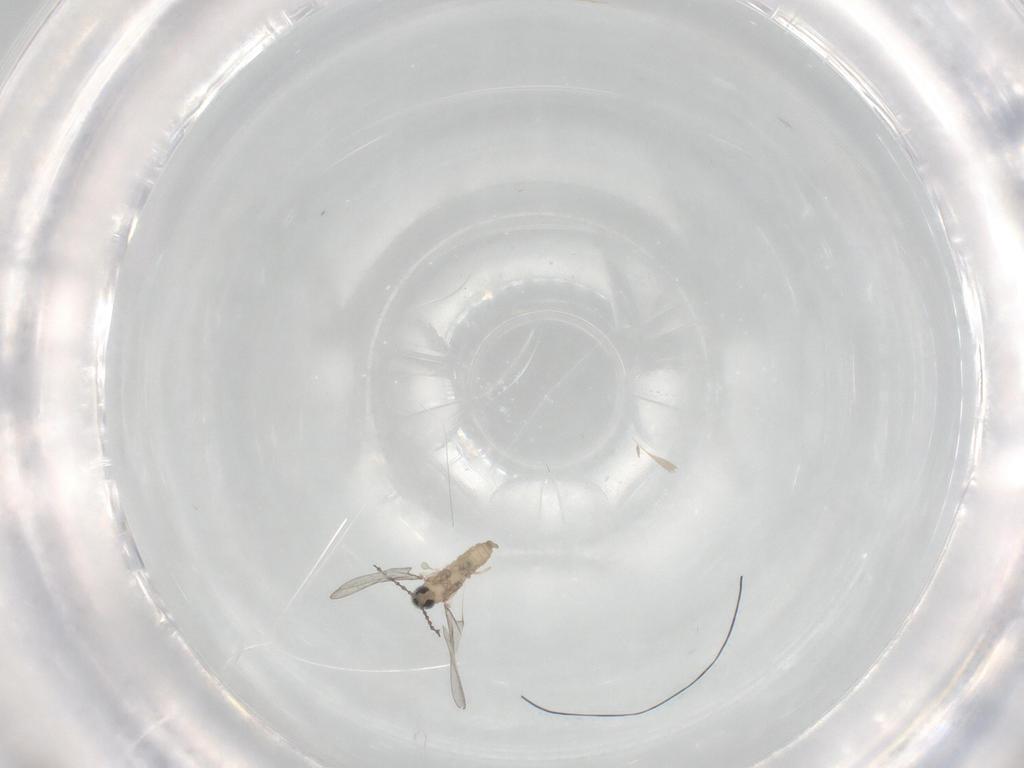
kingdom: Animalia
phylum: Arthropoda
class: Insecta
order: Diptera
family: Cecidomyiidae
